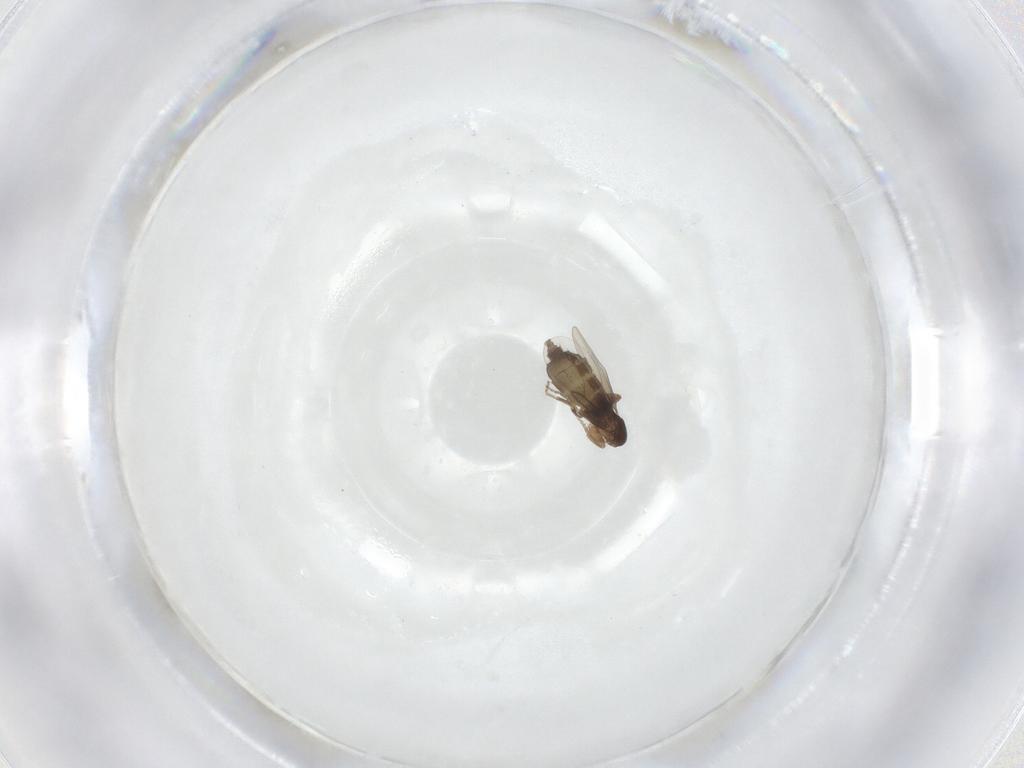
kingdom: Animalia
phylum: Arthropoda
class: Insecta
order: Diptera
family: Phoridae
